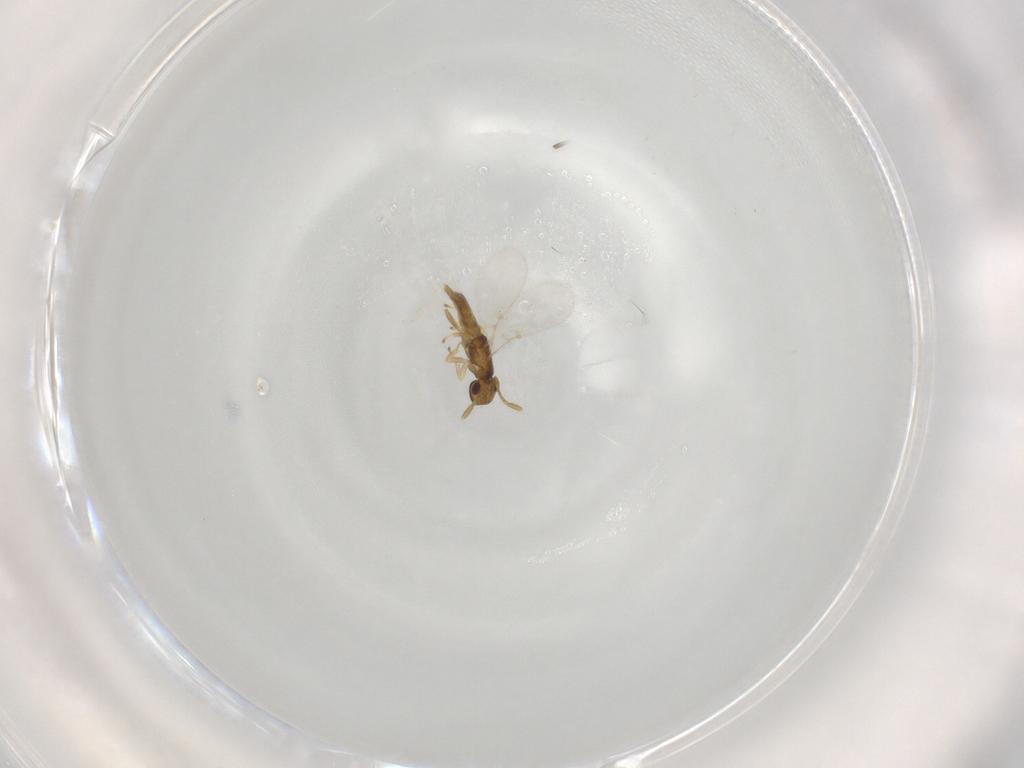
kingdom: Animalia
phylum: Arthropoda
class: Insecta
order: Hymenoptera
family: Encyrtidae
